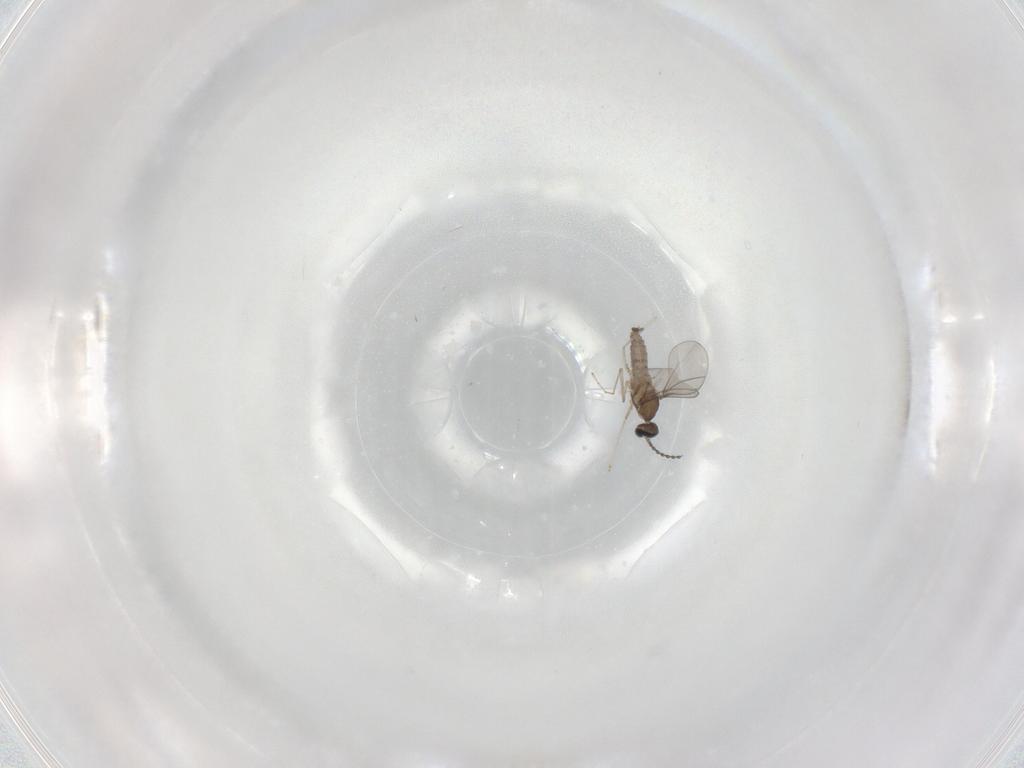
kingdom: Animalia
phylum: Arthropoda
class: Insecta
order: Diptera
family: Cecidomyiidae
